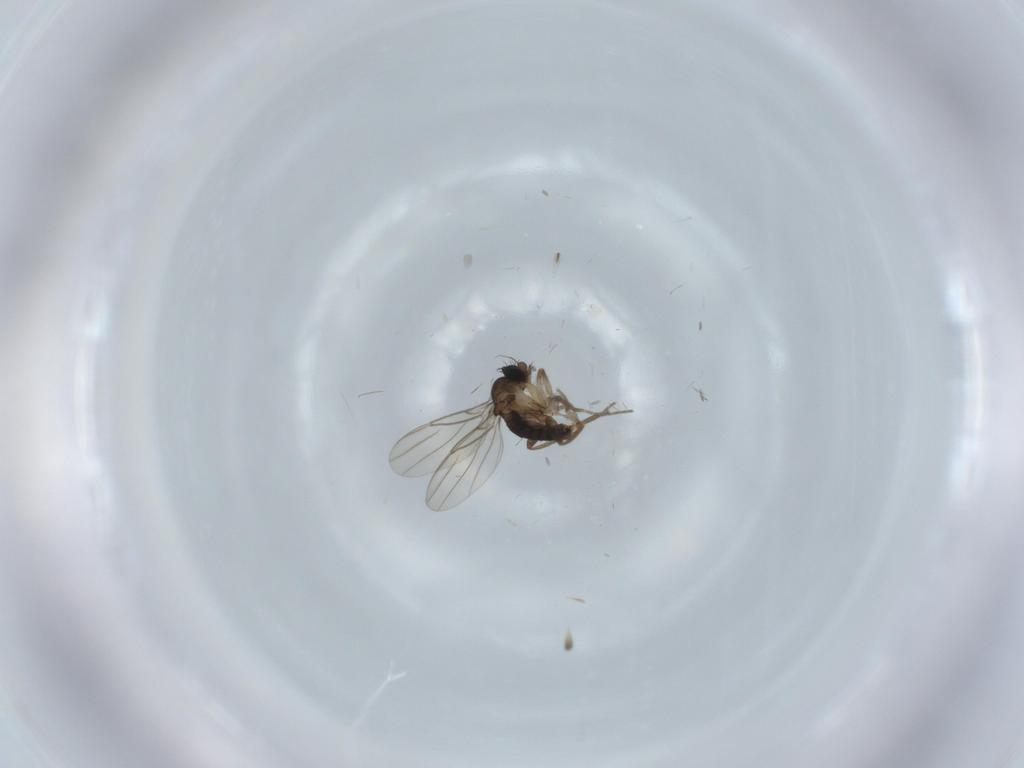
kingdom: Animalia
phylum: Arthropoda
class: Insecta
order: Diptera
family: Phoridae
